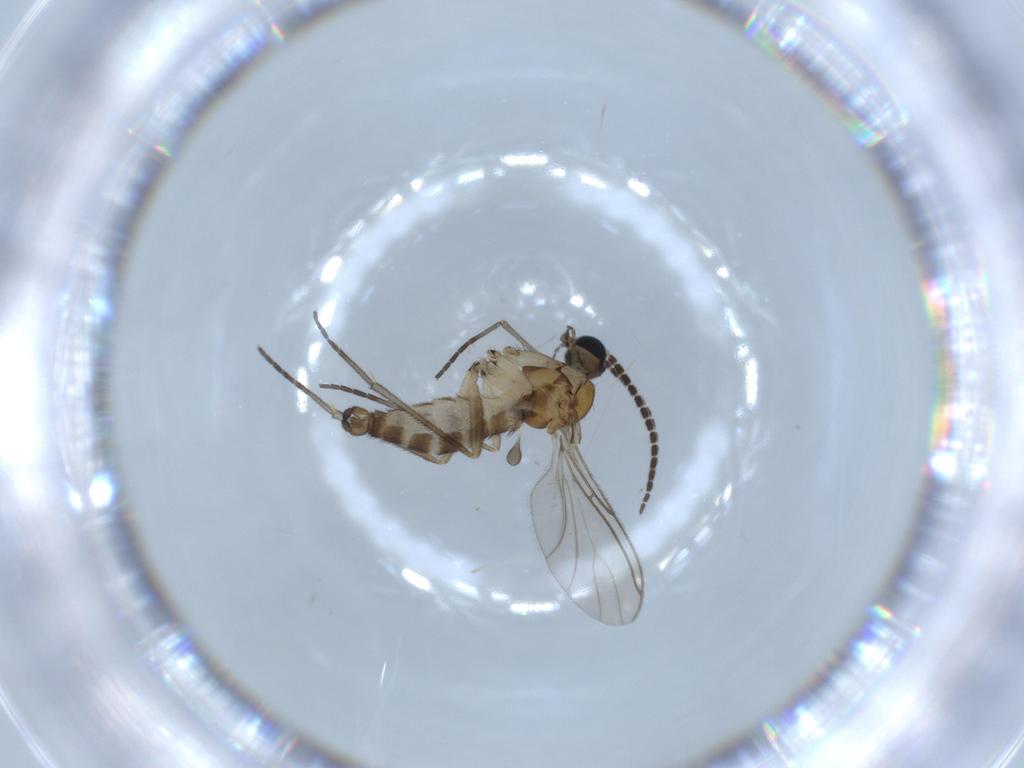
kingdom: Animalia
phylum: Arthropoda
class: Insecta
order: Diptera
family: Sciaridae
